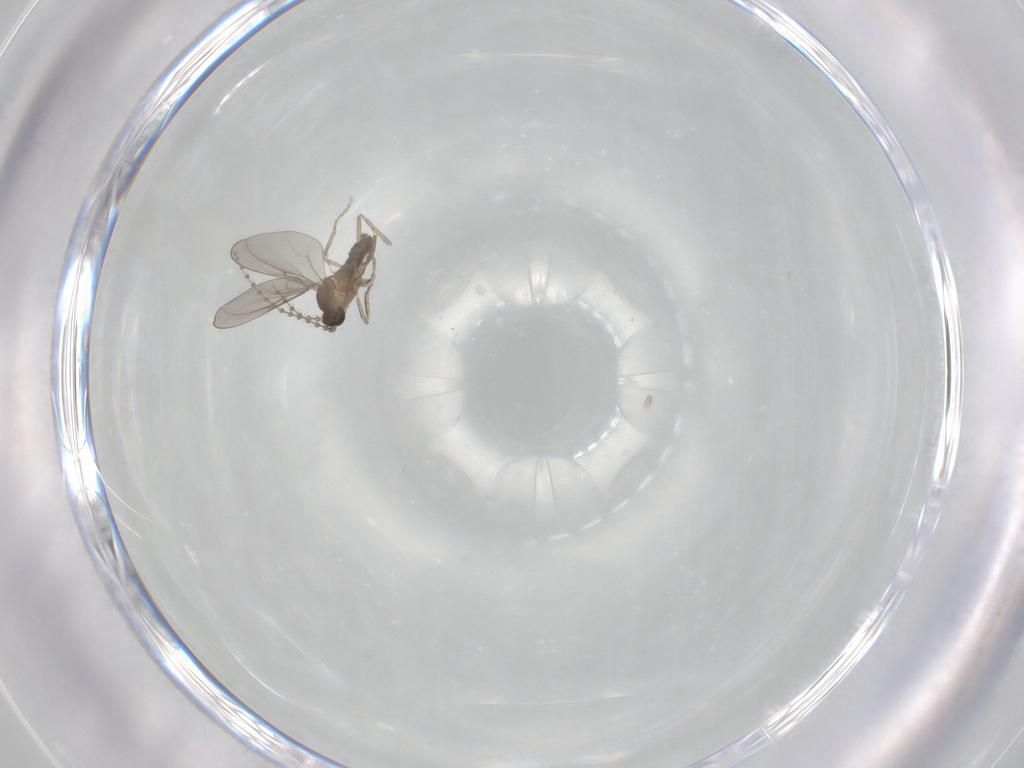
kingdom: Animalia
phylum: Arthropoda
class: Insecta
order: Diptera
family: Cecidomyiidae
